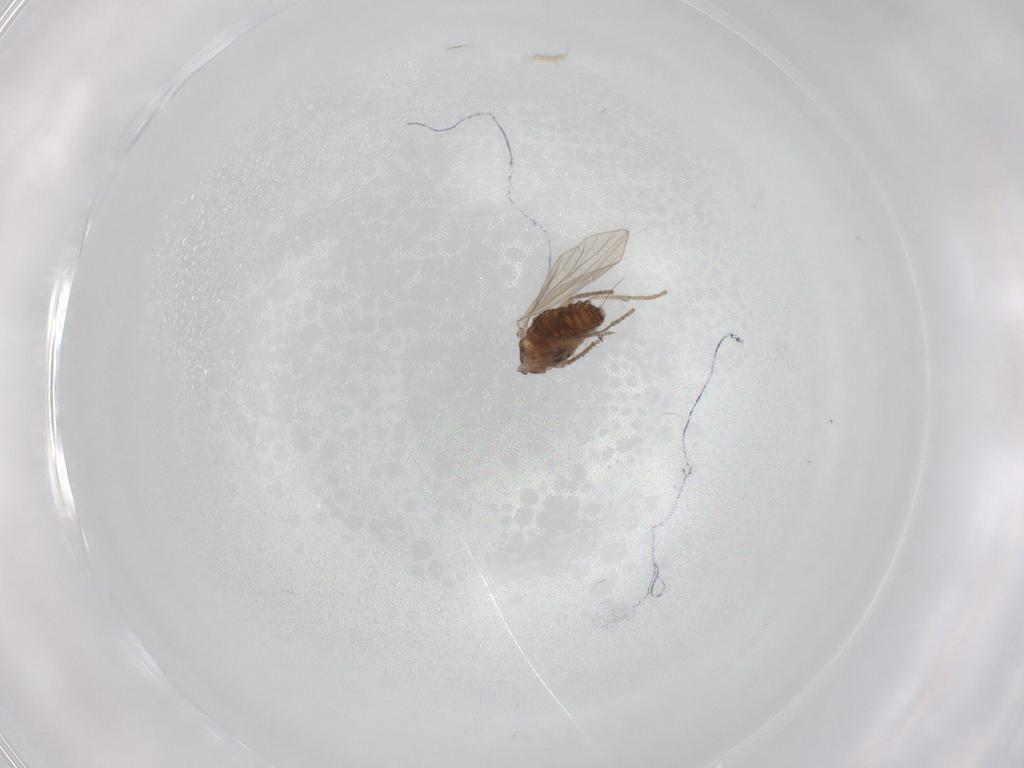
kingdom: Animalia
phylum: Arthropoda
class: Insecta
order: Diptera
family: Psychodidae
